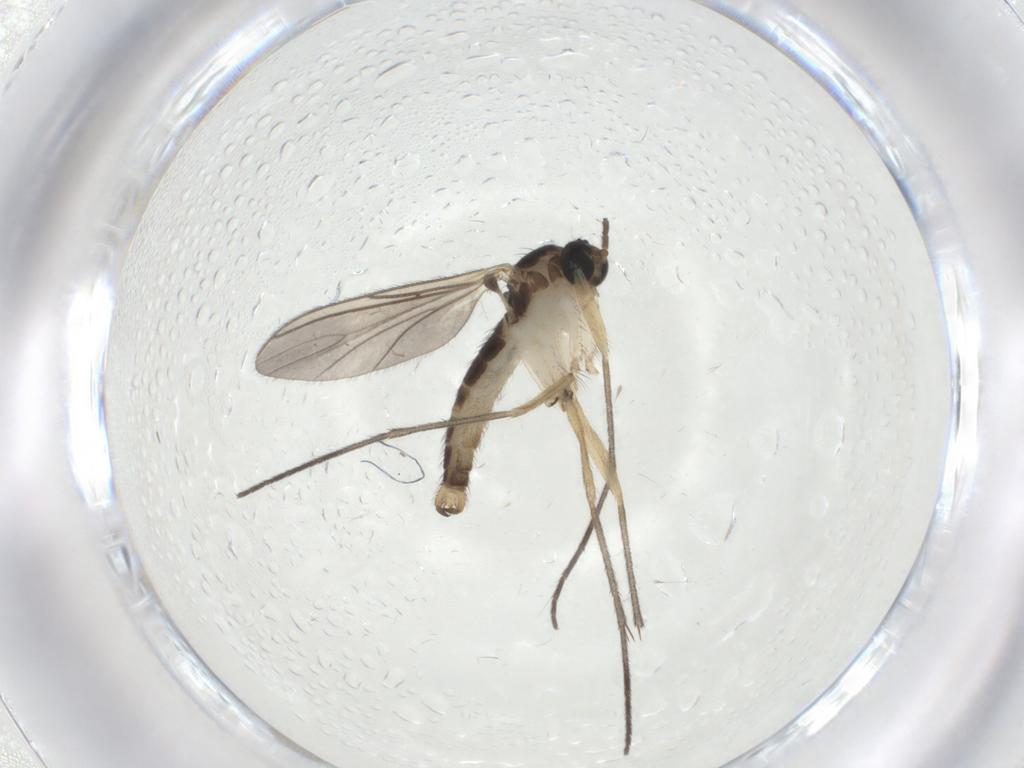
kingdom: Animalia
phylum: Arthropoda
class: Insecta
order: Diptera
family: Sciaridae
